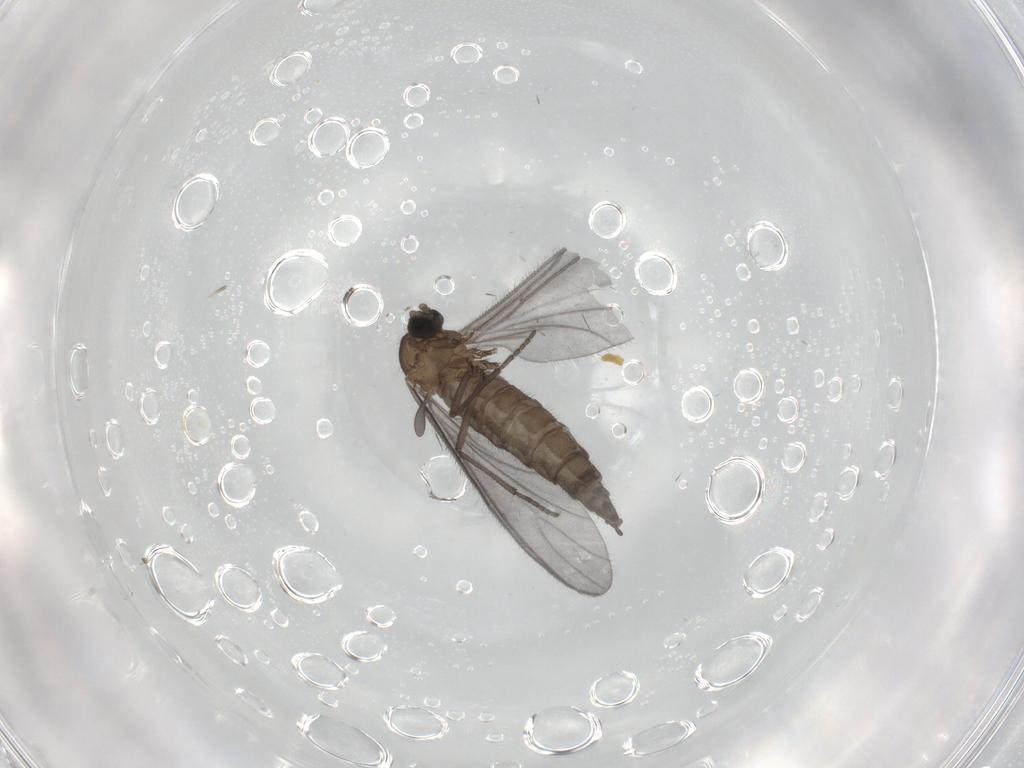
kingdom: Animalia
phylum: Arthropoda
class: Insecta
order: Diptera
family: Sciaridae
